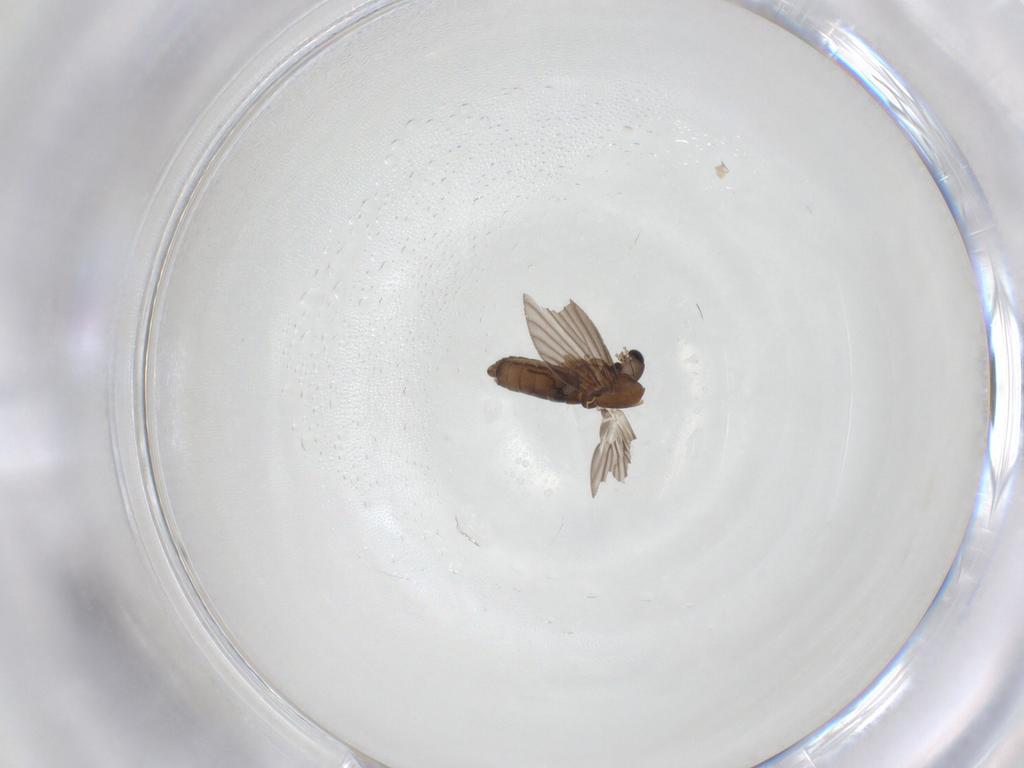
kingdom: Animalia
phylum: Arthropoda
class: Insecta
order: Diptera
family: Psychodidae
